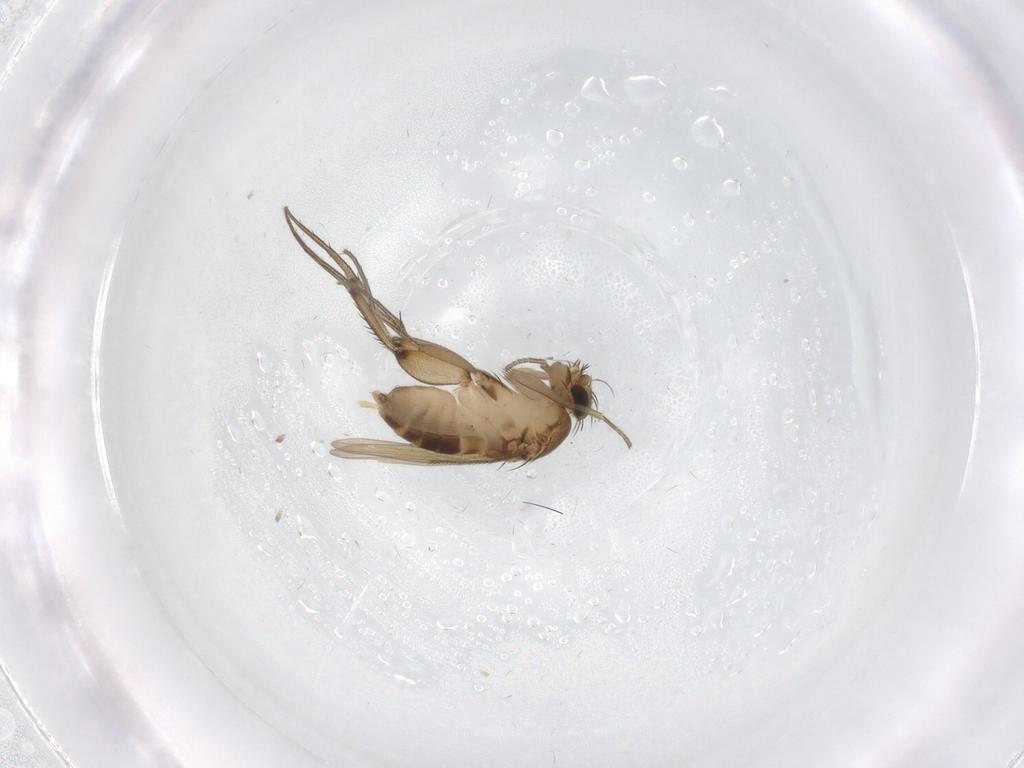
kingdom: Animalia
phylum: Arthropoda
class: Insecta
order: Diptera
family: Phoridae
